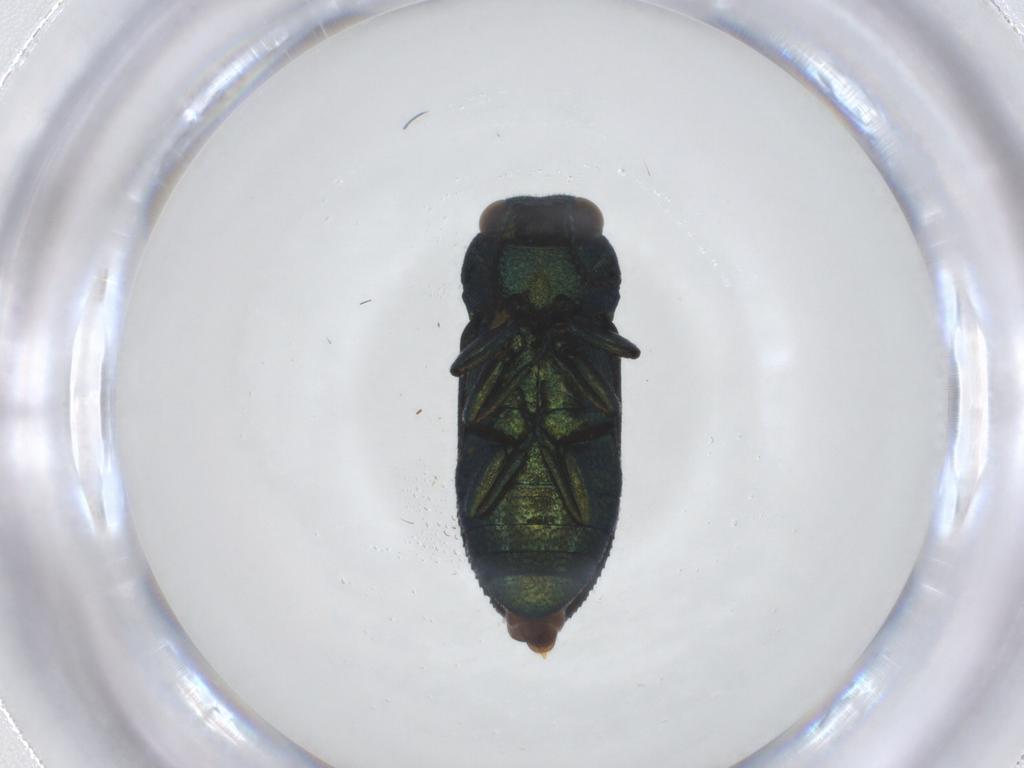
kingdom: Animalia
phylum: Arthropoda
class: Insecta
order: Coleoptera
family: Buprestidae
